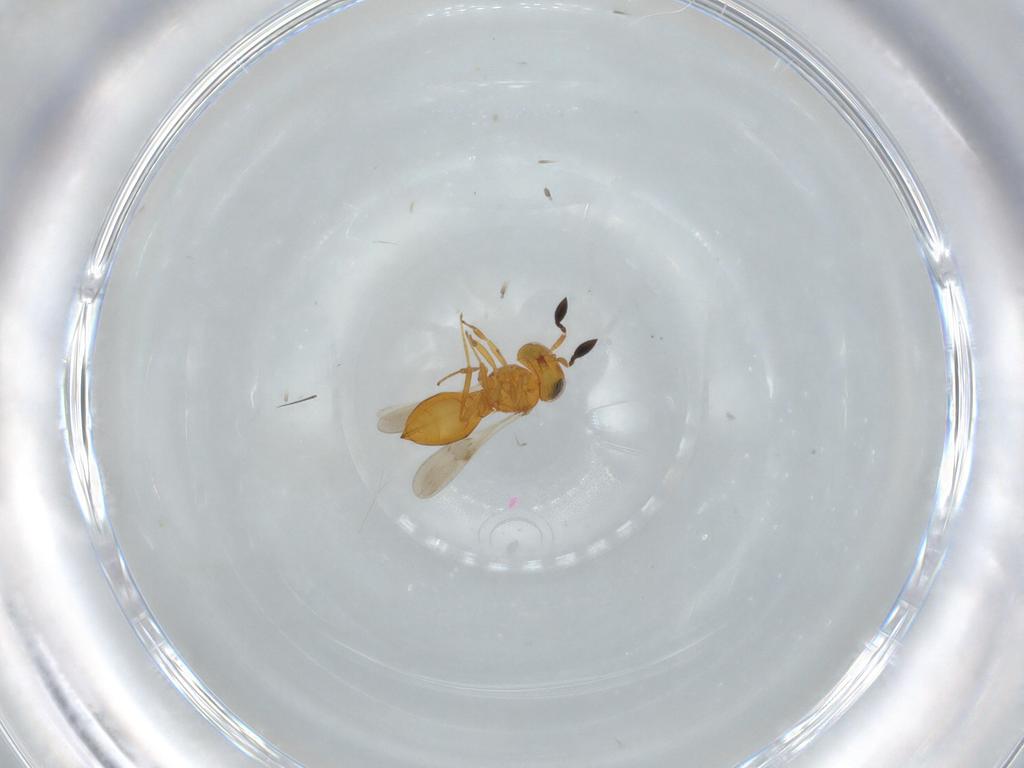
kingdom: Animalia
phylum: Arthropoda
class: Insecta
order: Hymenoptera
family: Scelionidae
